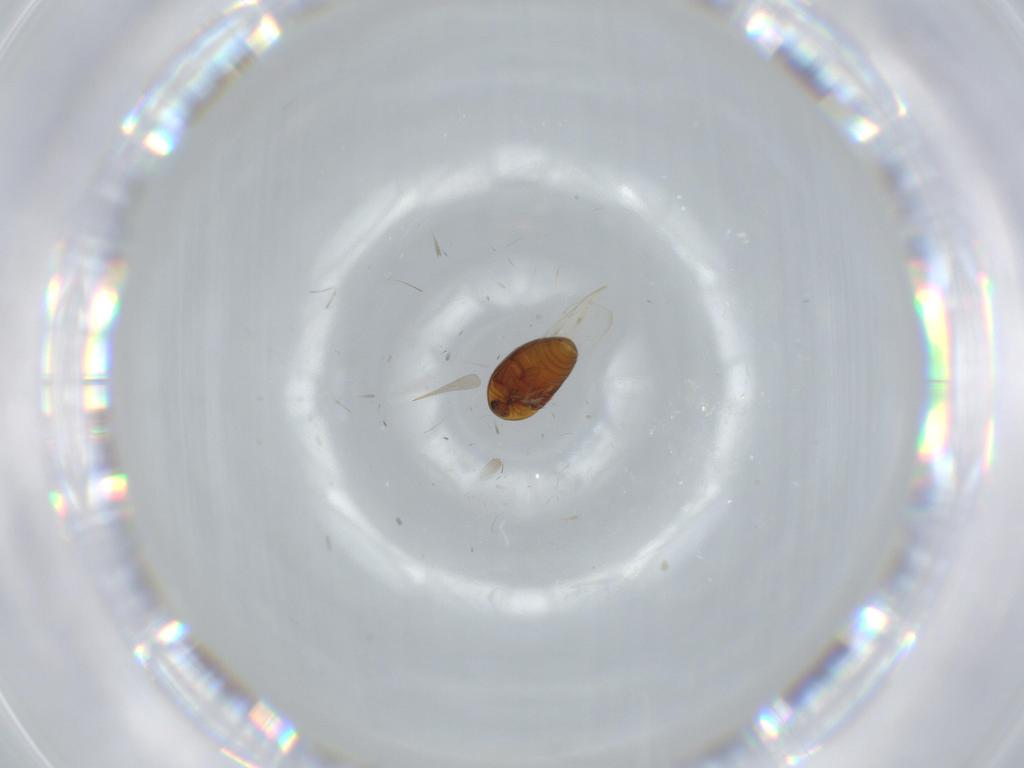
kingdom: Animalia
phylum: Arthropoda
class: Insecta
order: Coleoptera
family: Corylophidae
